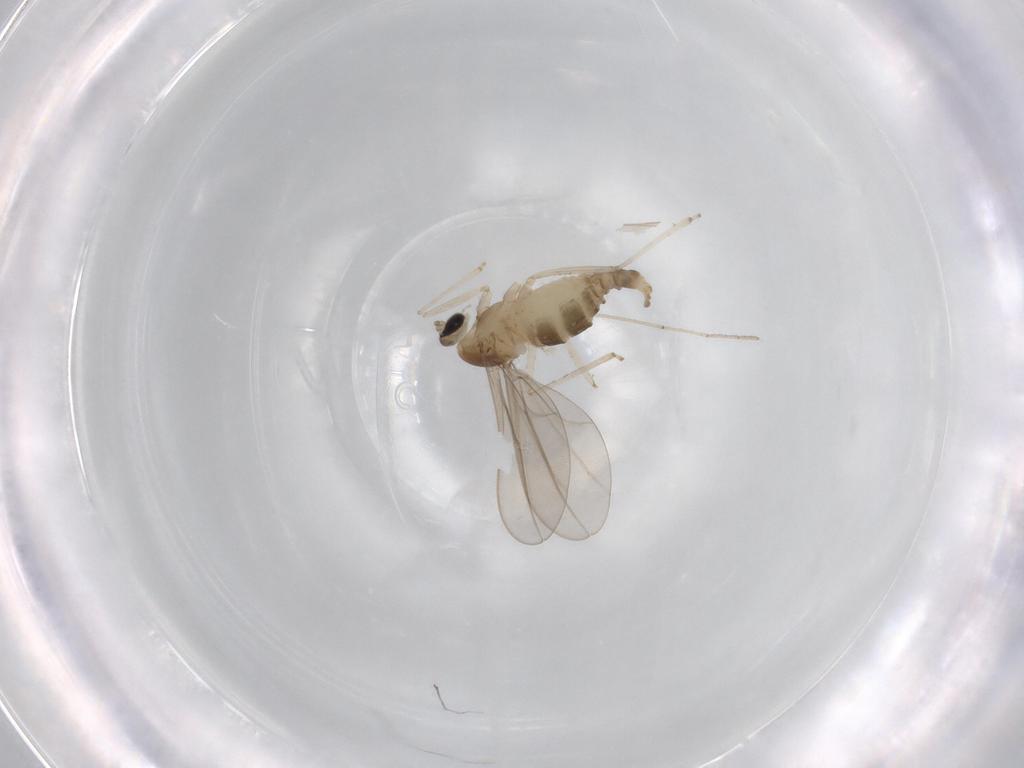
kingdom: Animalia
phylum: Arthropoda
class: Insecta
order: Diptera
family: Cecidomyiidae
